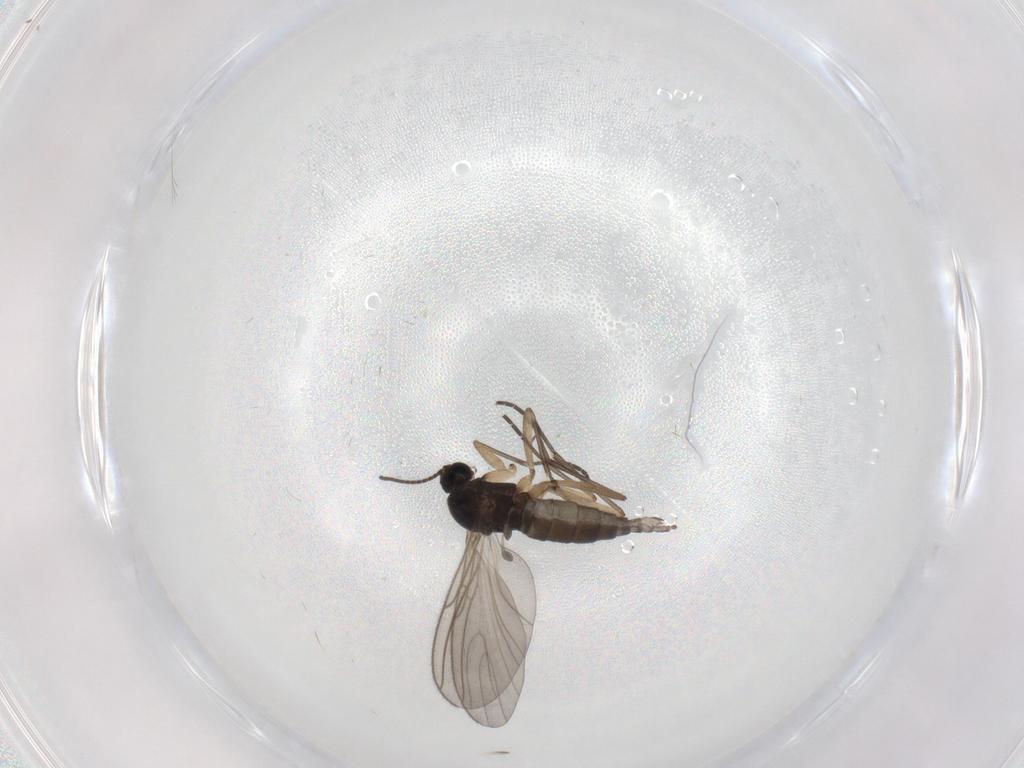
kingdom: Animalia
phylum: Arthropoda
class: Insecta
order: Diptera
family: Sciaridae
